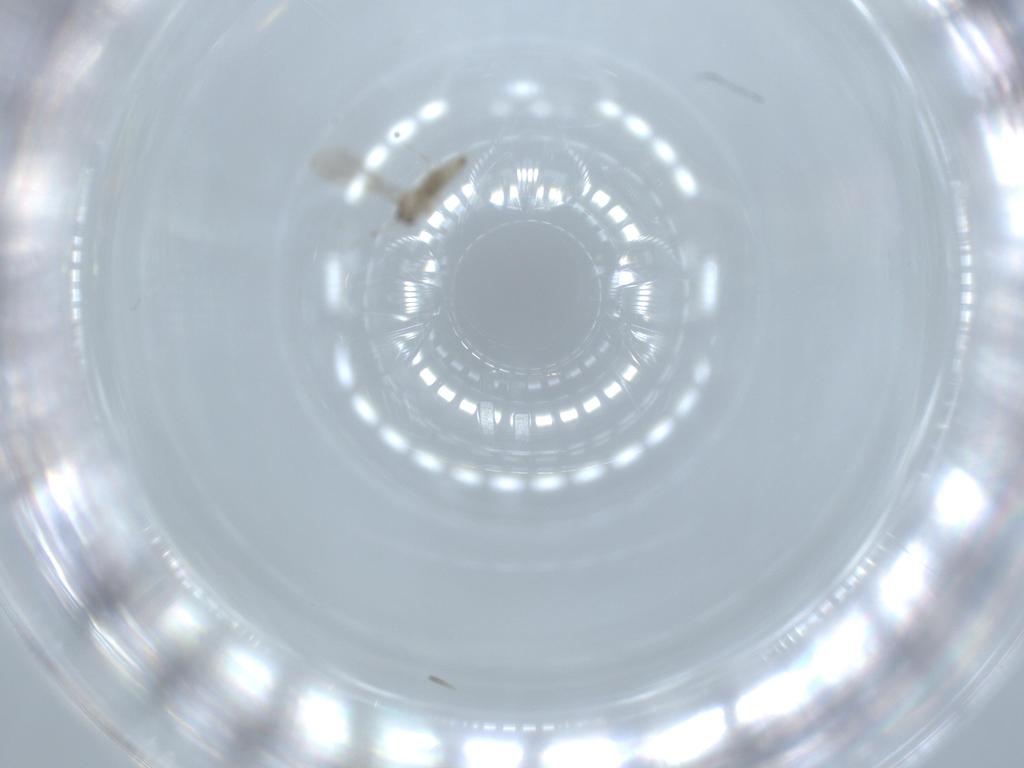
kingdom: Animalia
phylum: Arthropoda
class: Insecta
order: Diptera
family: Cecidomyiidae
